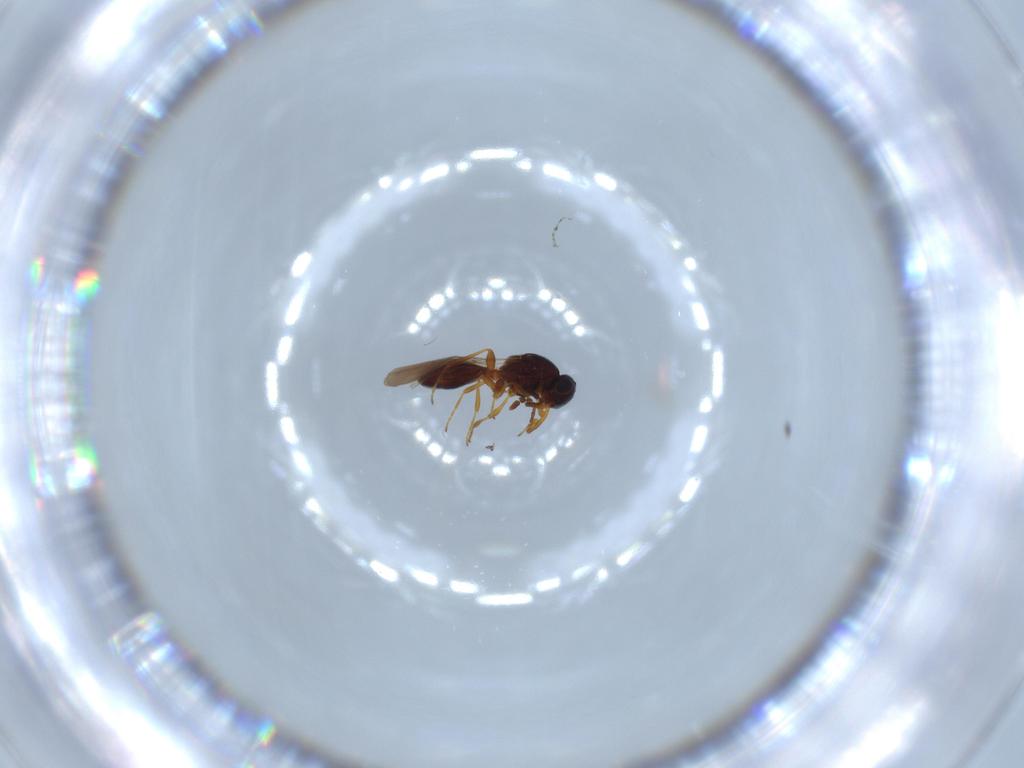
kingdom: Animalia
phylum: Arthropoda
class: Insecta
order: Hymenoptera
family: Platygastridae
